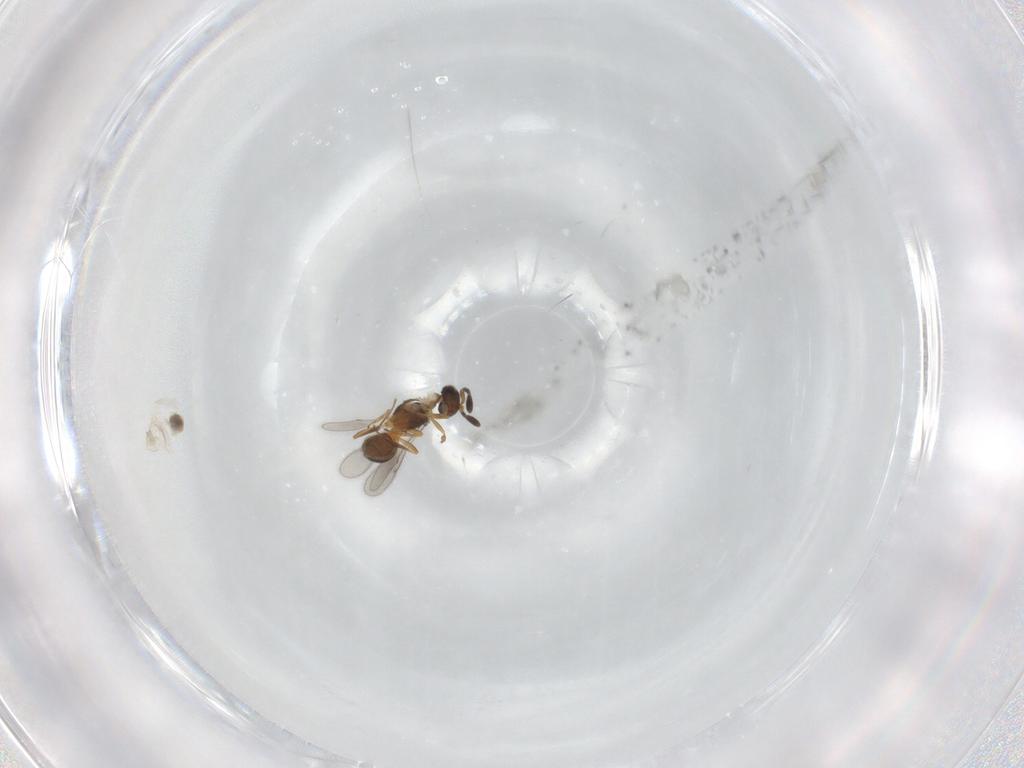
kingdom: Animalia
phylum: Arthropoda
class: Insecta
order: Hymenoptera
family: Scelionidae
